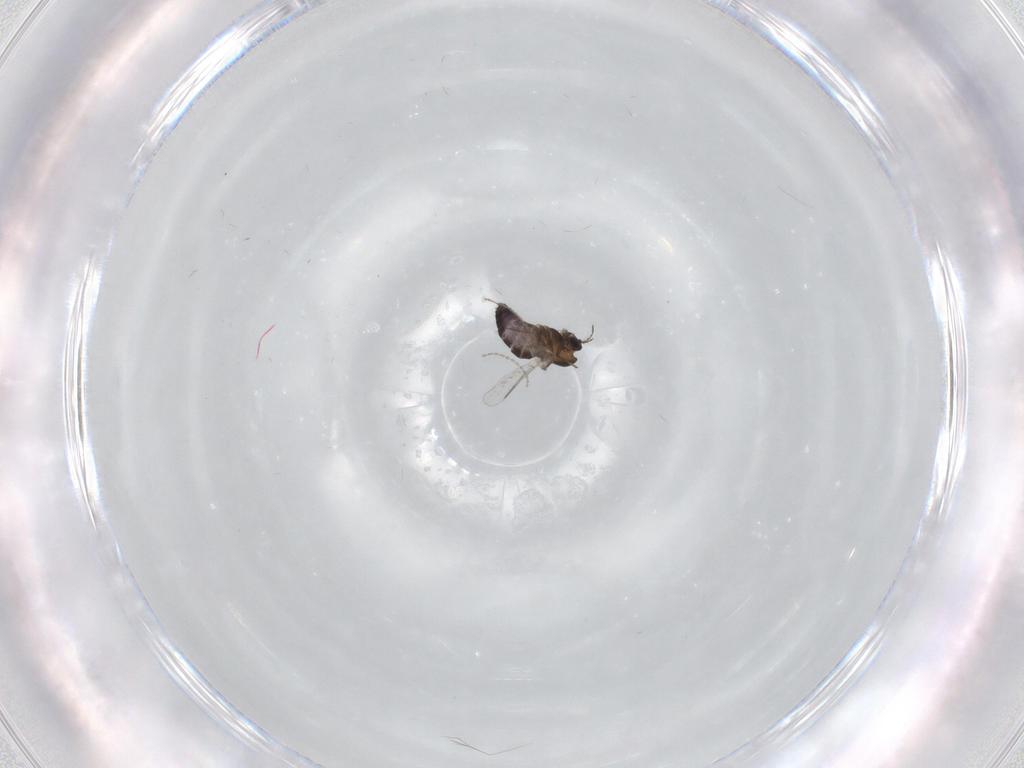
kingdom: Animalia
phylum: Arthropoda
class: Insecta
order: Diptera
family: Chironomidae
